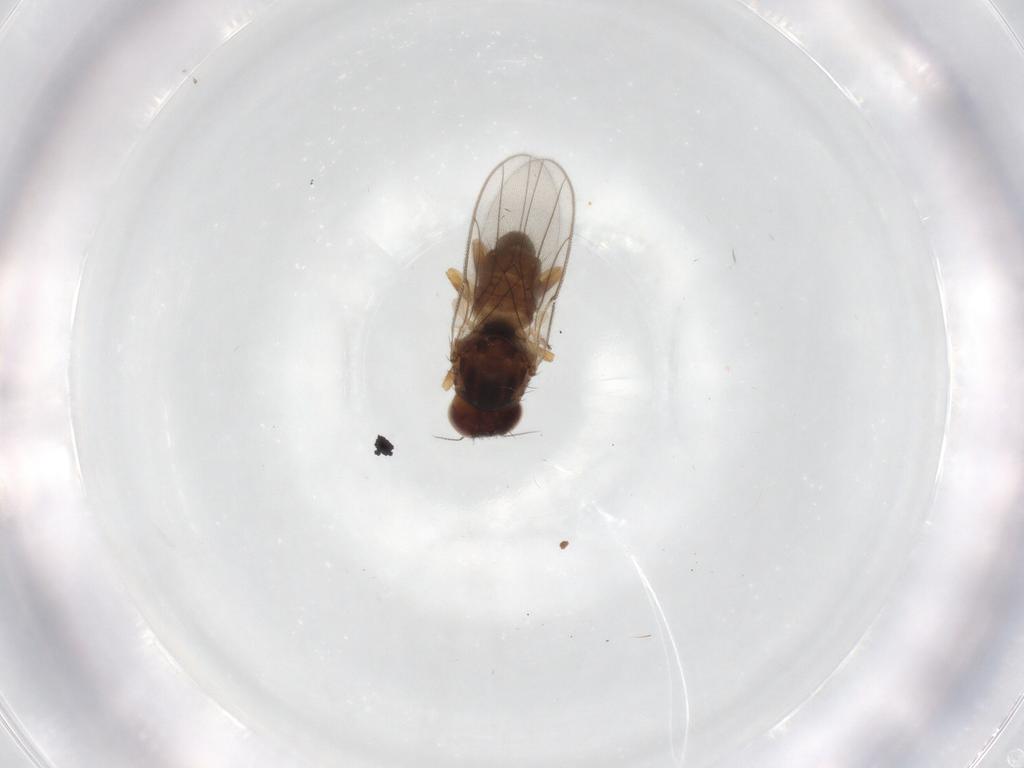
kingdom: Animalia
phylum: Arthropoda
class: Insecta
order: Diptera
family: Chloropidae
